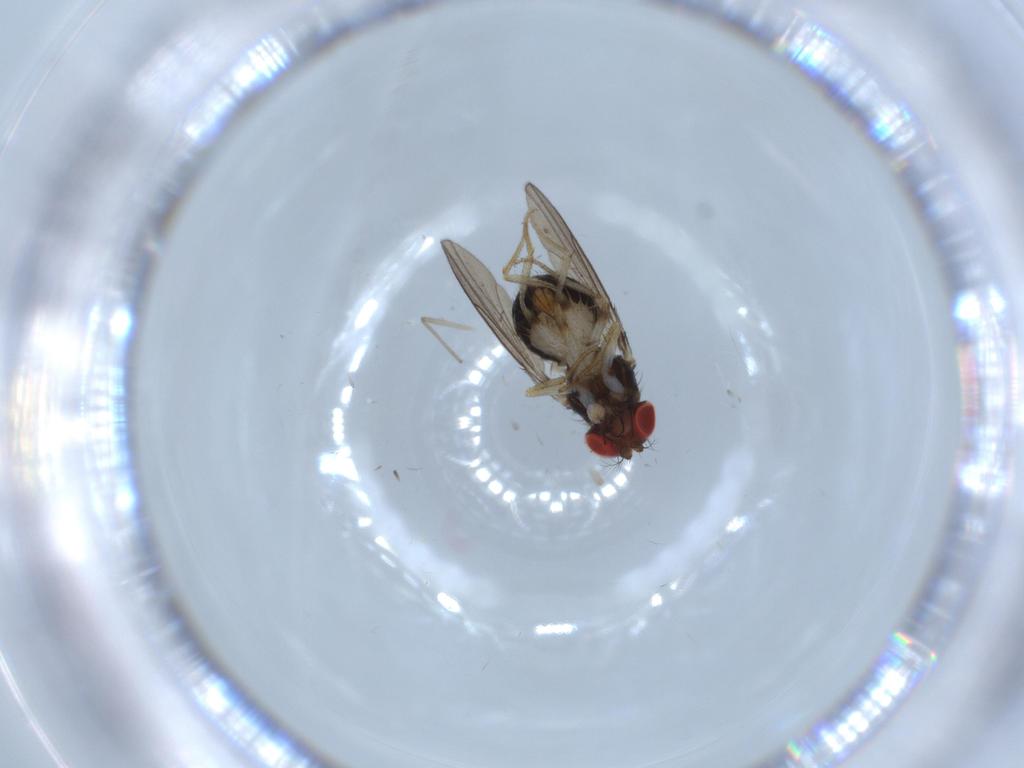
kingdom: Animalia
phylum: Arthropoda
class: Insecta
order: Diptera
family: Drosophilidae
